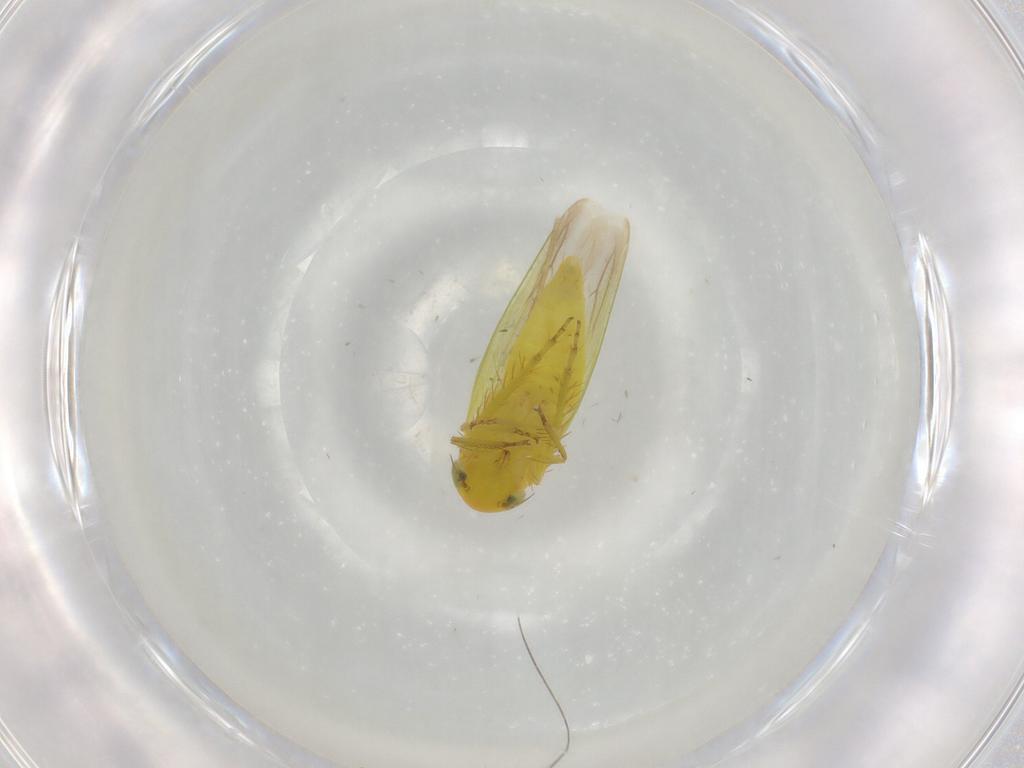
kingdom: Animalia
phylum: Arthropoda
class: Insecta
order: Hemiptera
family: Cicadellidae
